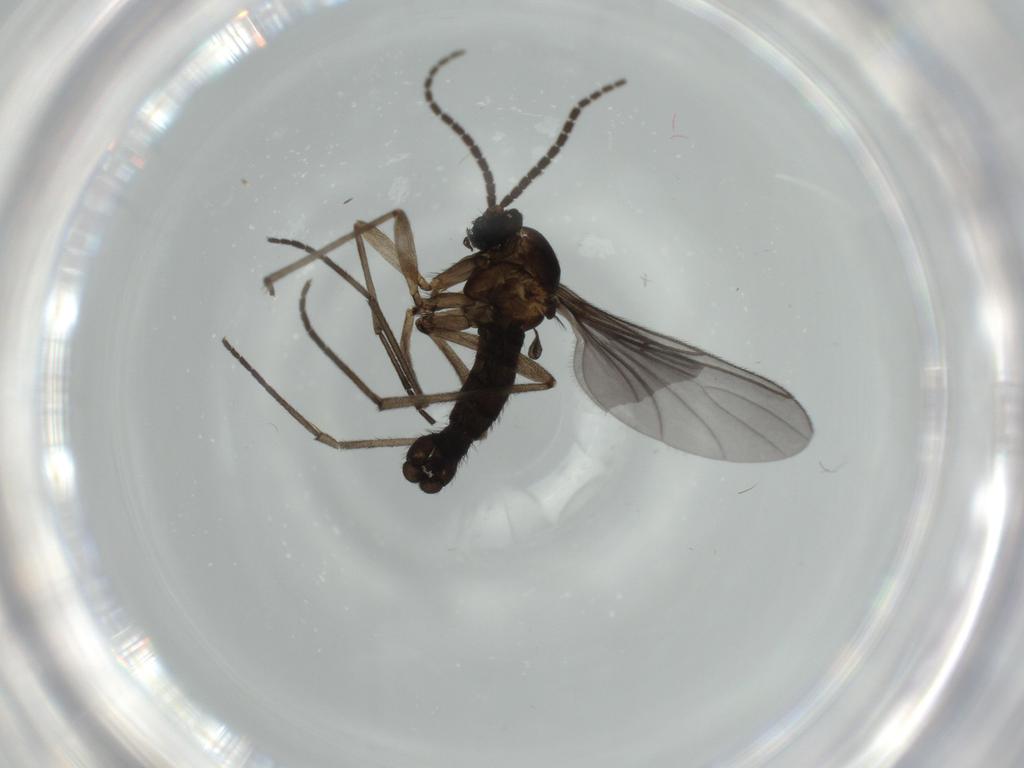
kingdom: Animalia
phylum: Arthropoda
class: Insecta
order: Diptera
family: Sciaridae
